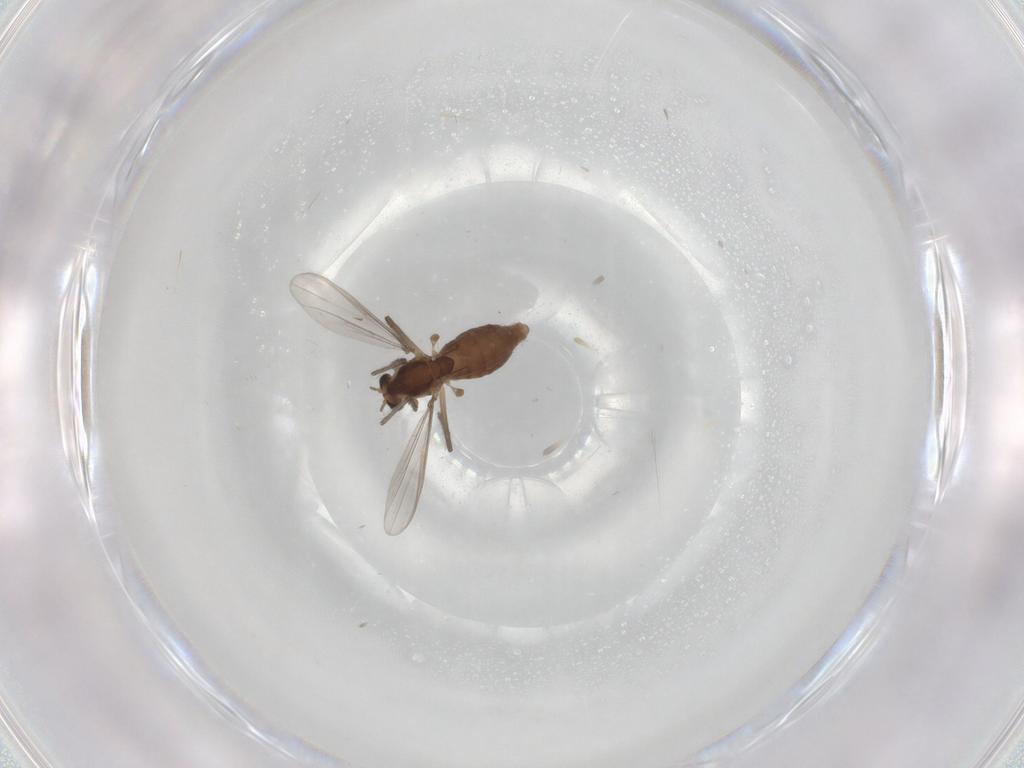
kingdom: Animalia
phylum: Arthropoda
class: Insecta
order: Diptera
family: Chironomidae
